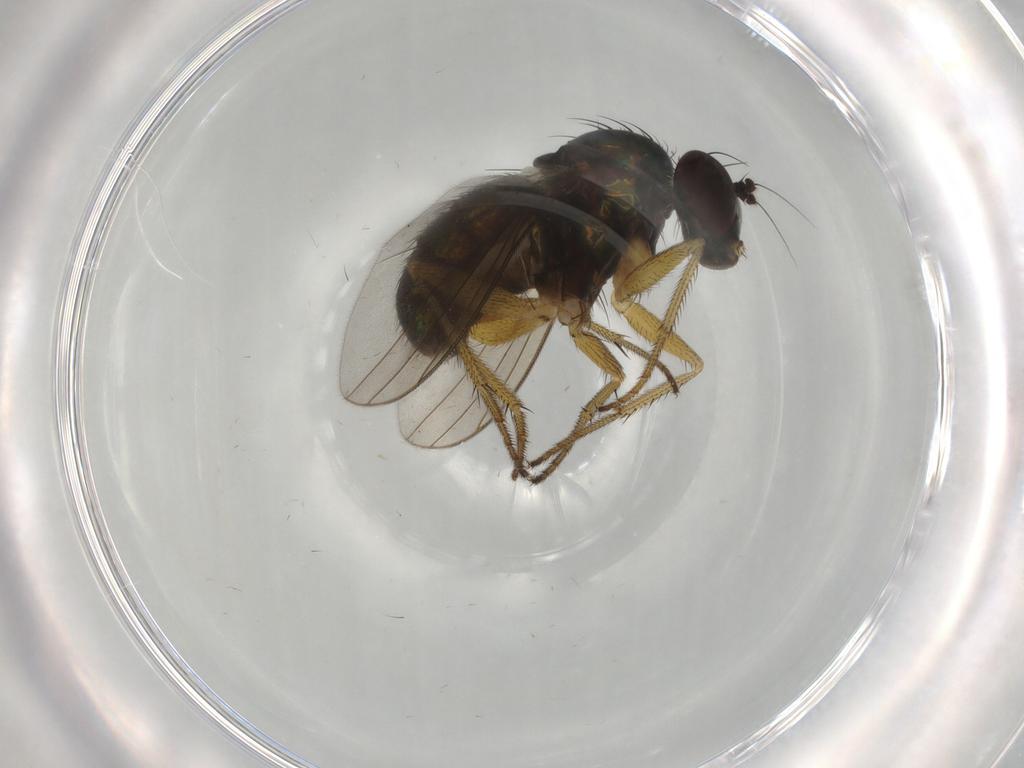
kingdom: Animalia
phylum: Arthropoda
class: Insecta
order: Diptera
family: Dolichopodidae
